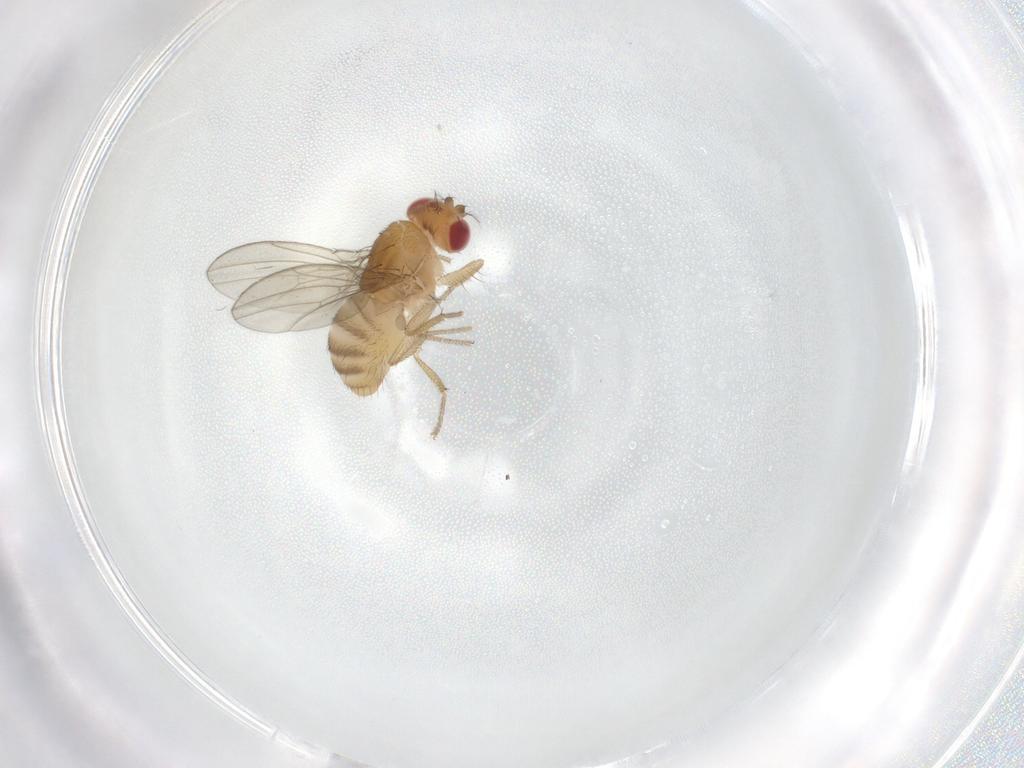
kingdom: Animalia
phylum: Arthropoda
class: Insecta
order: Diptera
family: Drosophilidae
